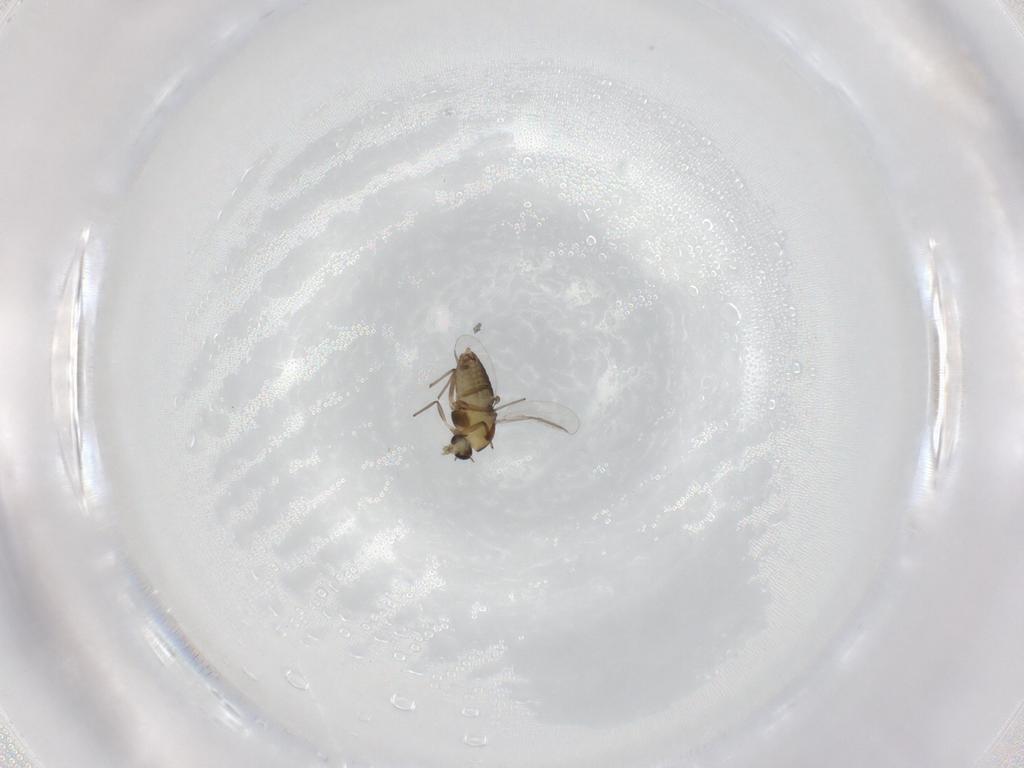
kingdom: Animalia
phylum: Arthropoda
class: Insecta
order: Diptera
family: Chironomidae
